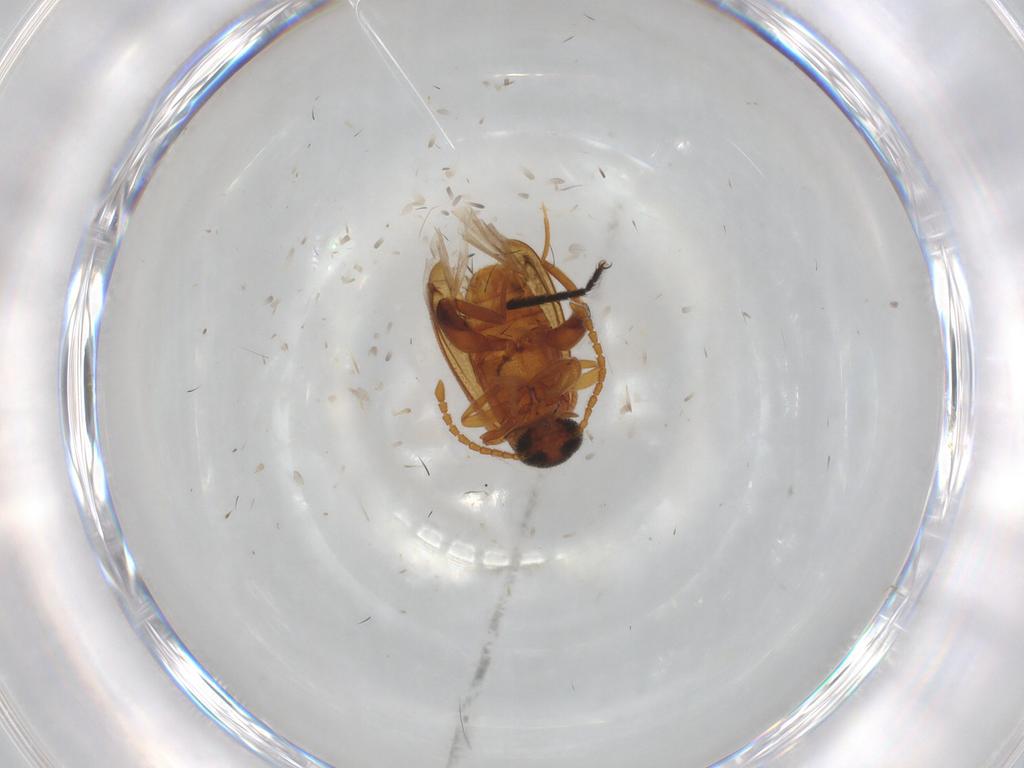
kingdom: Animalia
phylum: Arthropoda
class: Insecta
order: Coleoptera
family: Aderidae
